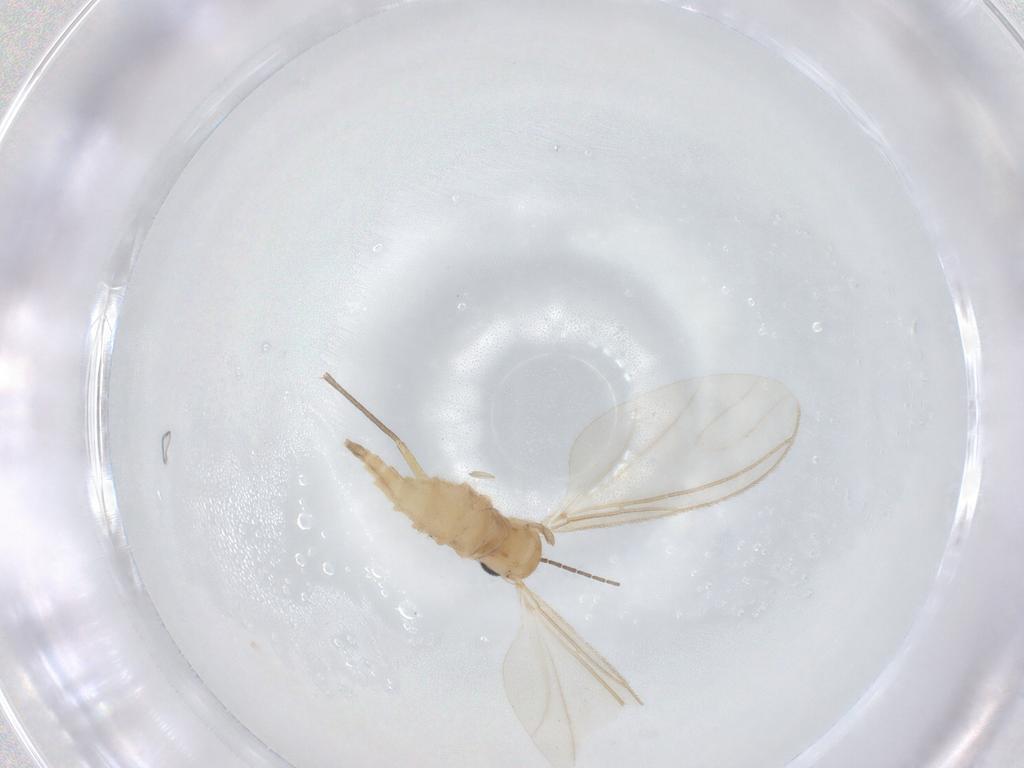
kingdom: Animalia
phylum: Arthropoda
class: Insecta
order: Diptera
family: Sciaridae
